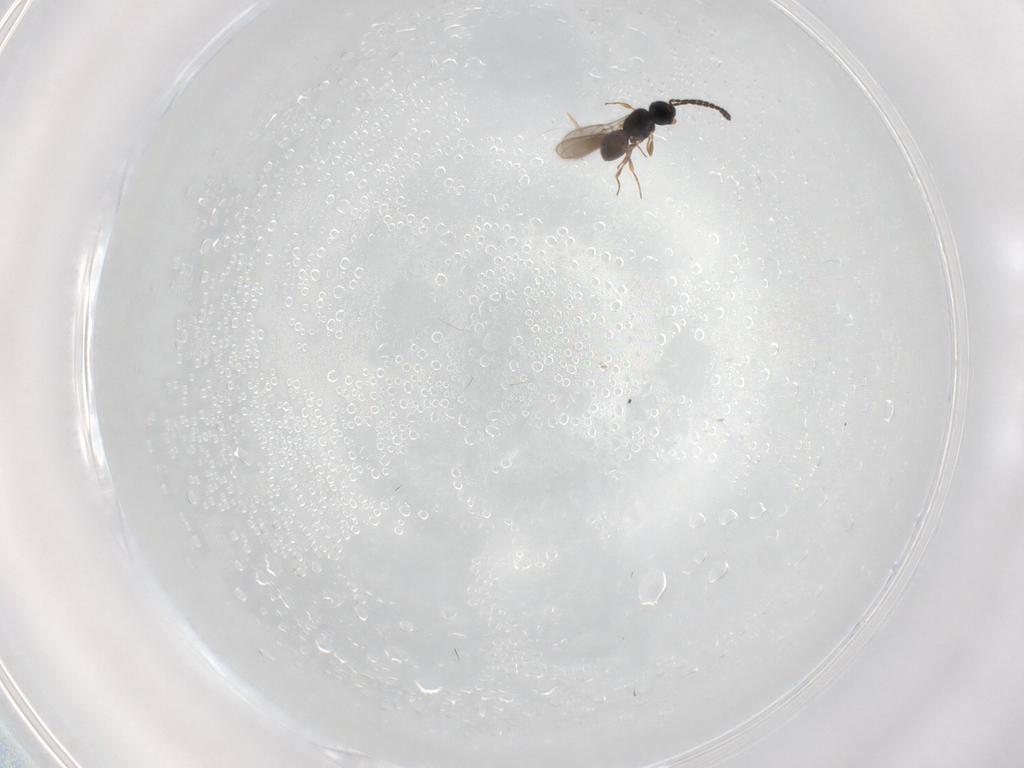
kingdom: Animalia
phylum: Arthropoda
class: Insecta
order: Hymenoptera
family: Scelionidae
